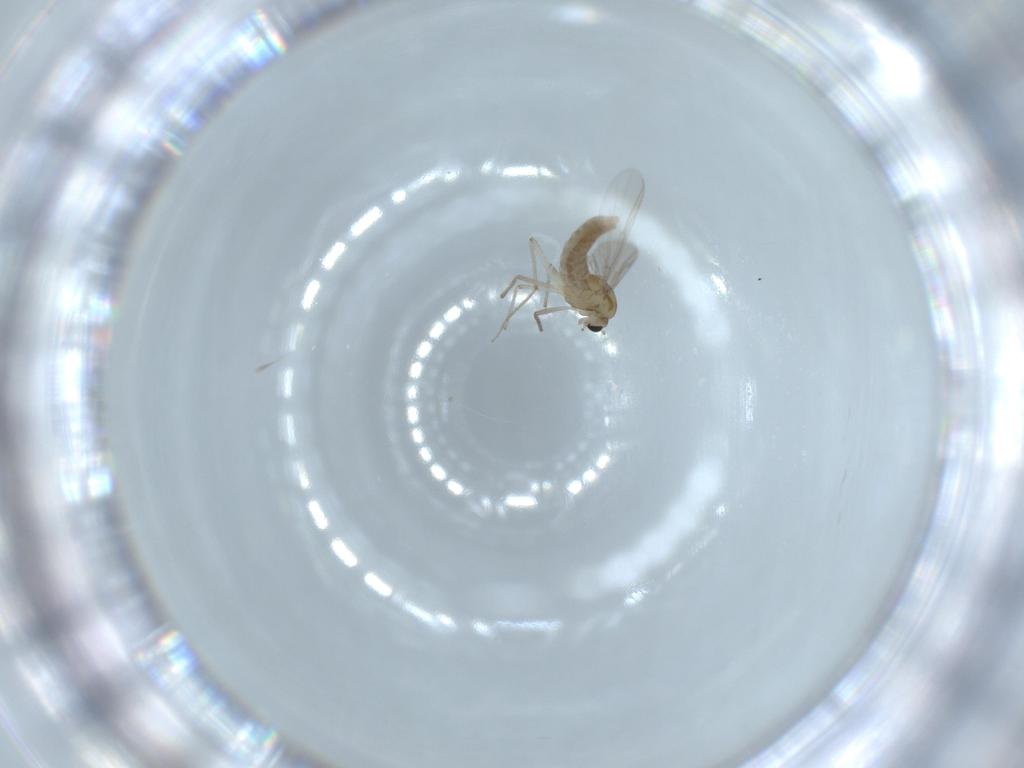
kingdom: Animalia
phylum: Arthropoda
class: Insecta
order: Diptera
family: Chironomidae
